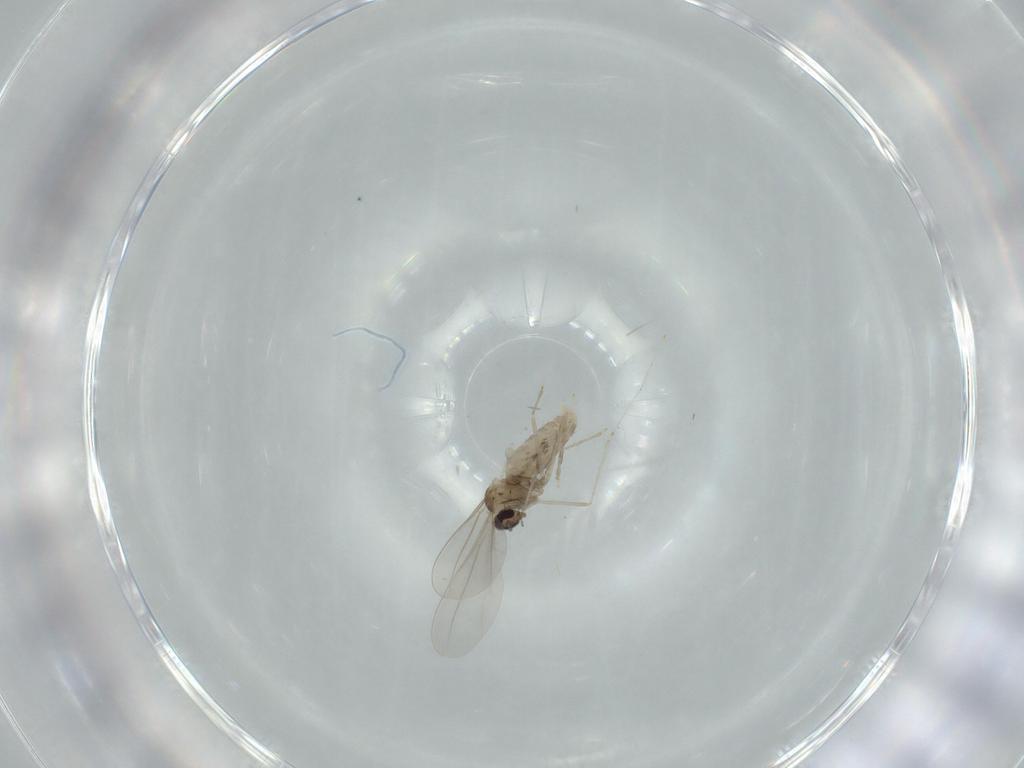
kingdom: Animalia
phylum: Arthropoda
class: Insecta
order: Diptera
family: Cecidomyiidae
